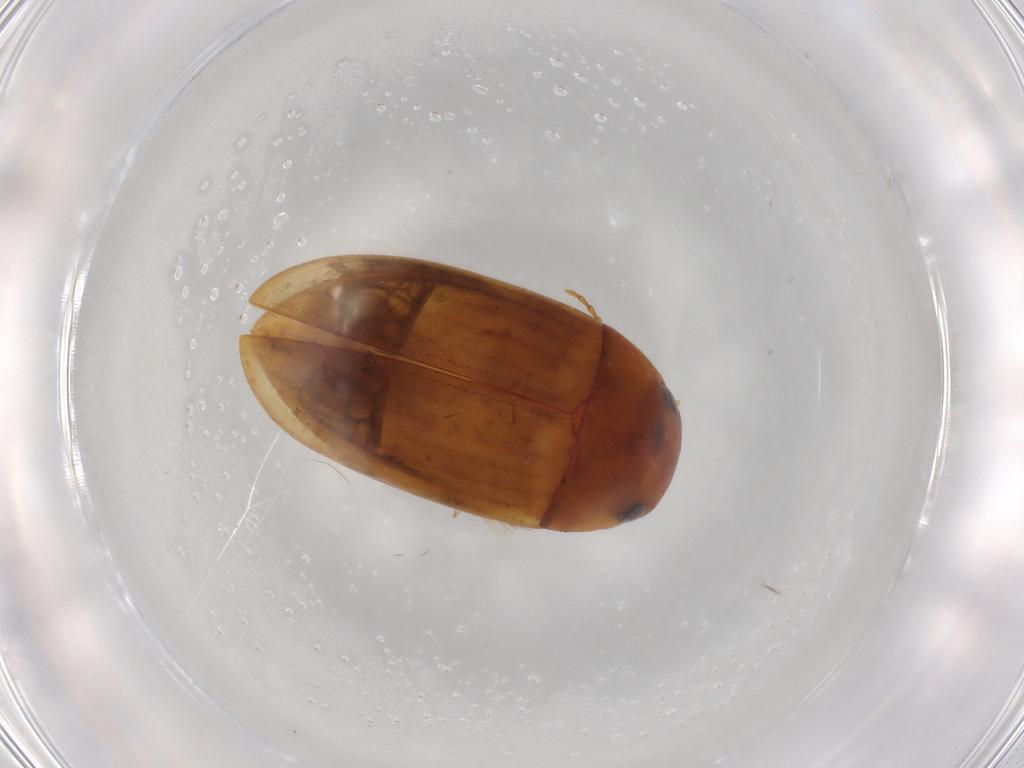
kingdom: Animalia
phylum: Arthropoda
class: Insecta
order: Coleoptera
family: Dytiscidae
